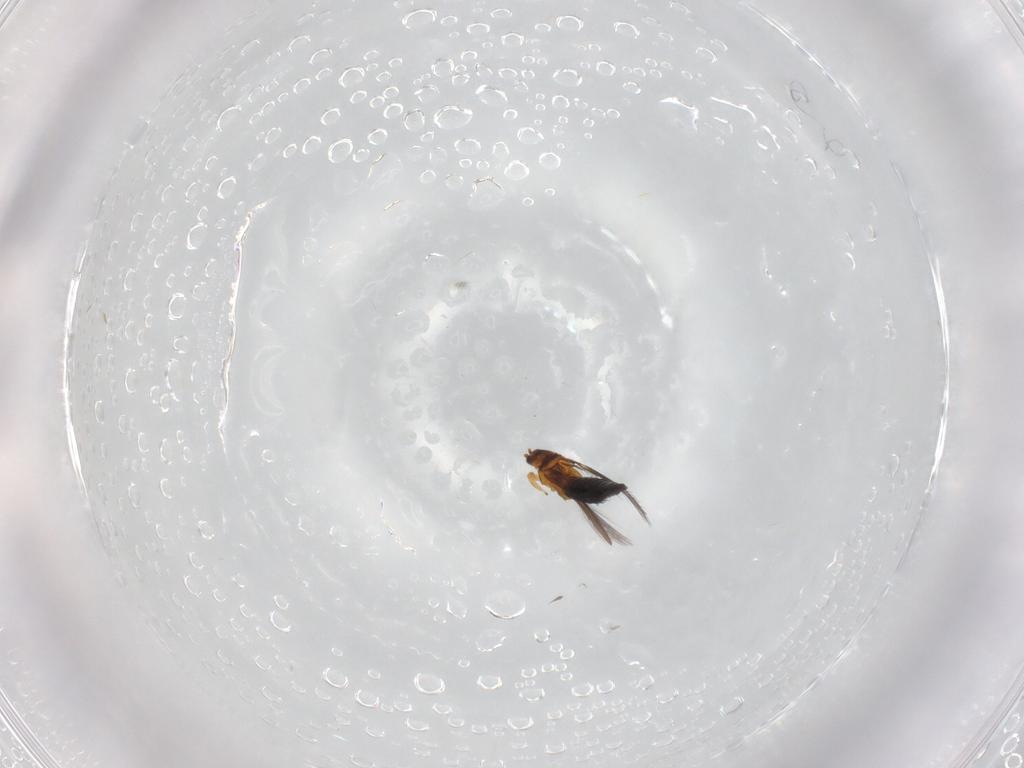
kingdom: Animalia
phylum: Arthropoda
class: Insecta
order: Thysanoptera
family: Thripidae
